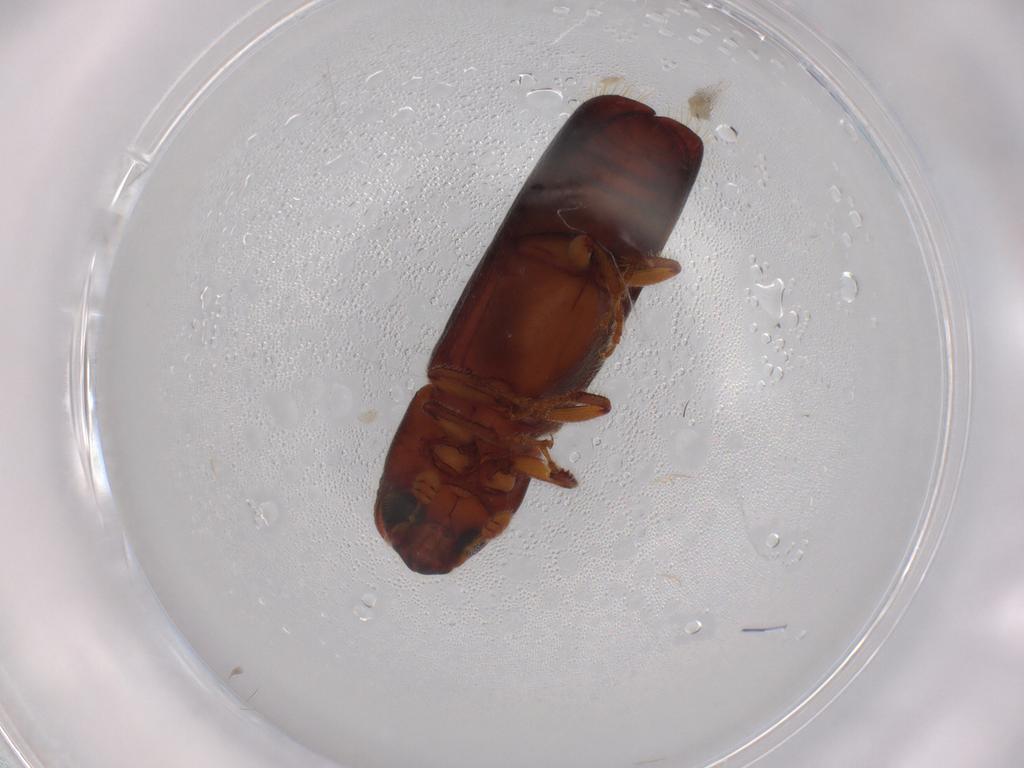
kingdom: Animalia
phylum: Arthropoda
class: Insecta
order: Coleoptera
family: Curculionidae
